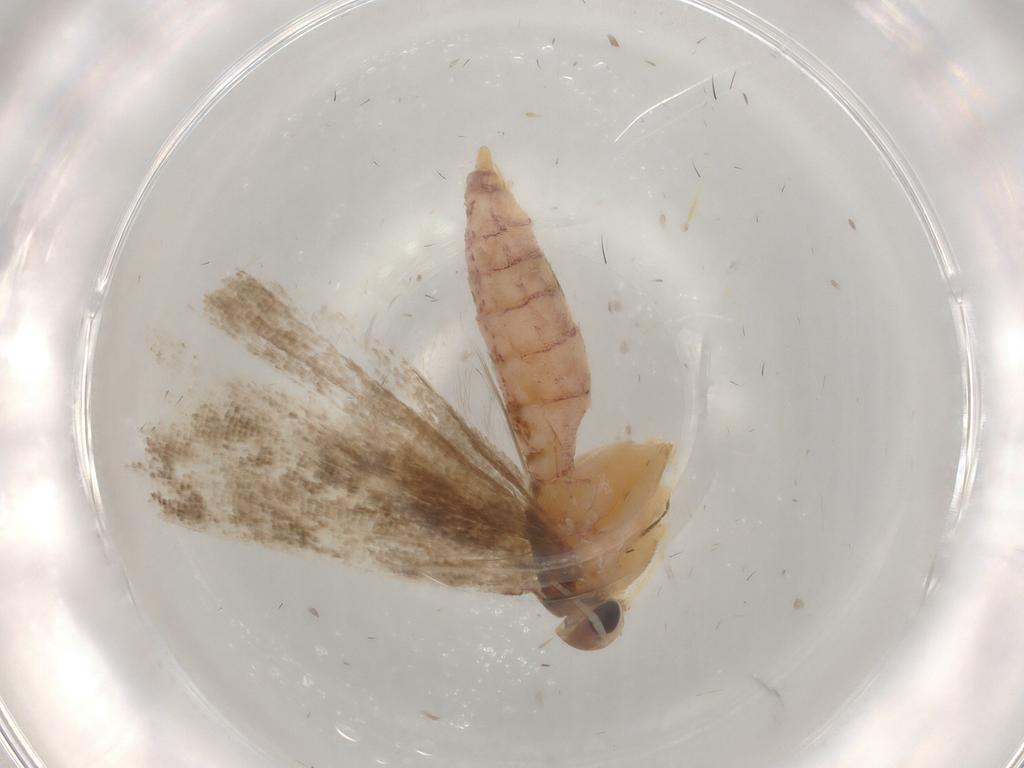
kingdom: Animalia
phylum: Arthropoda
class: Insecta
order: Lepidoptera
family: Gelechiidae
